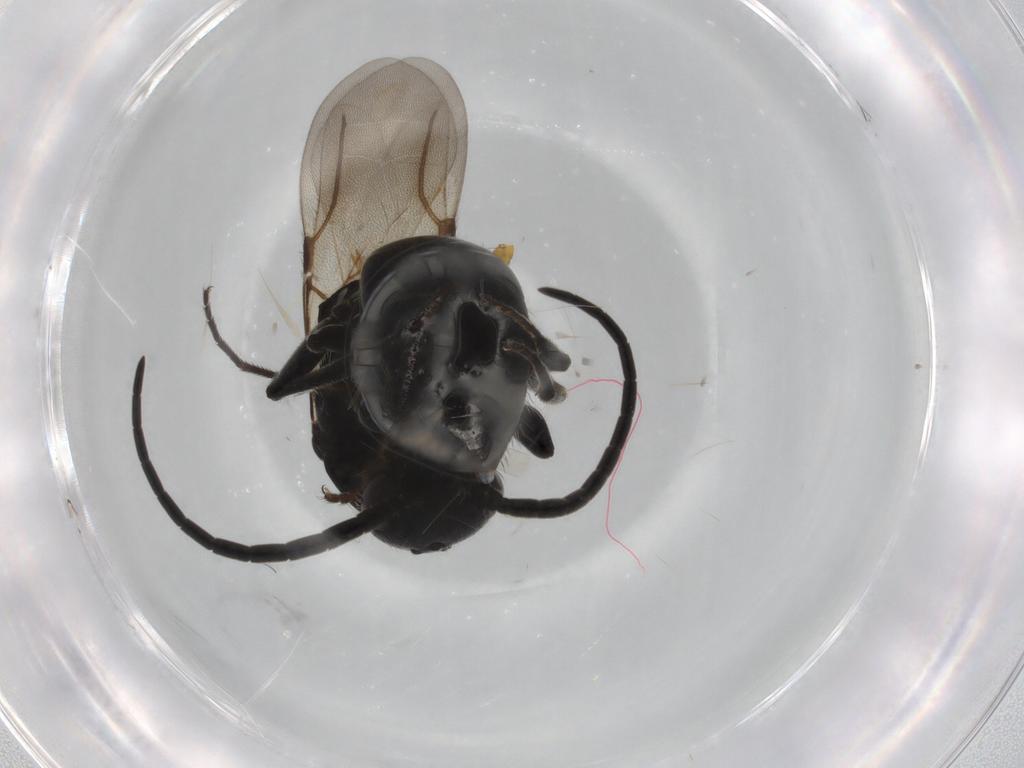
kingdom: Animalia
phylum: Arthropoda
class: Insecta
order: Hymenoptera
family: Bethylidae
